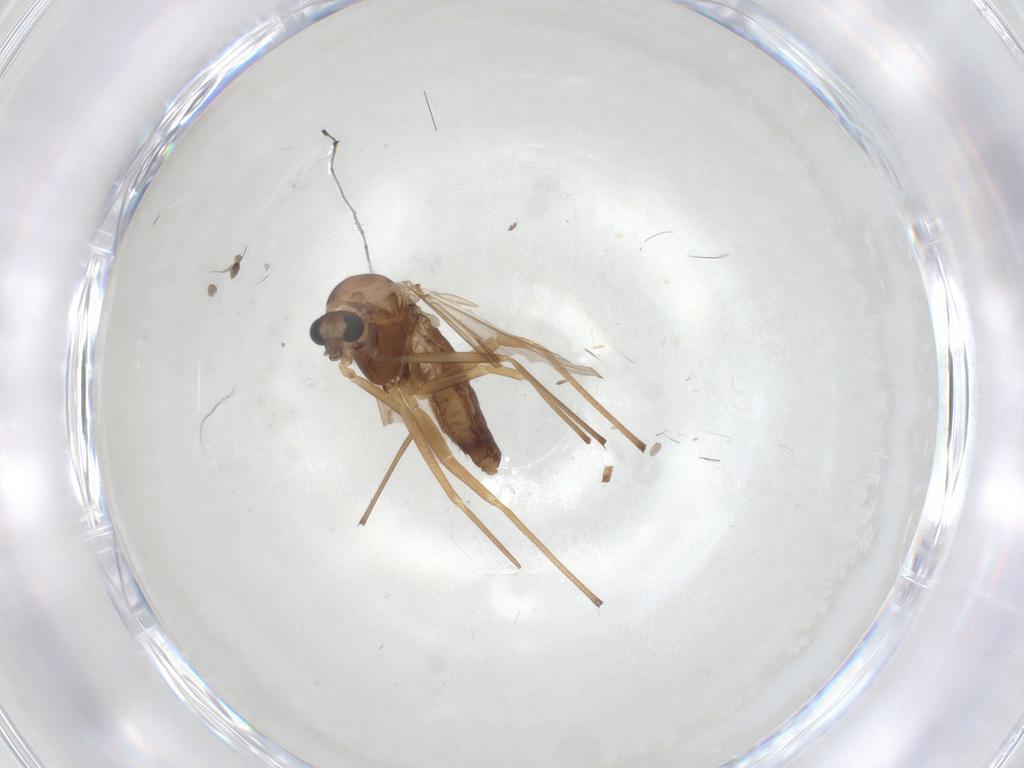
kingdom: Animalia
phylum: Arthropoda
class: Insecta
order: Diptera
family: Chironomidae
